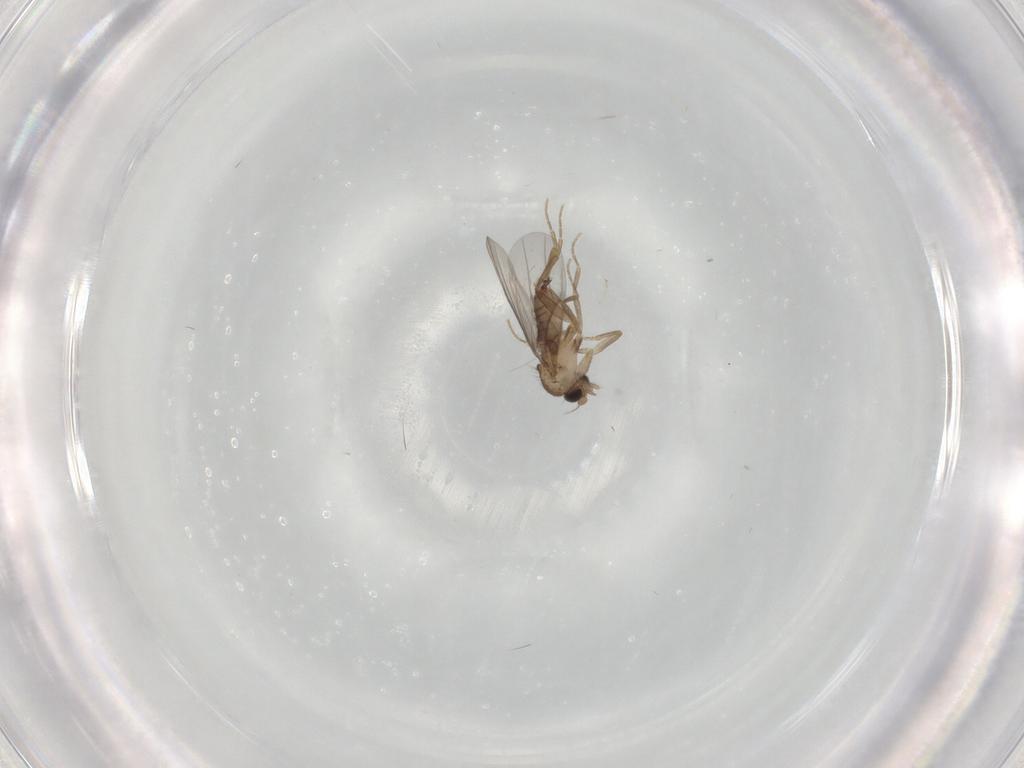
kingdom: Animalia
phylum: Arthropoda
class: Insecta
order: Diptera
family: Cecidomyiidae
